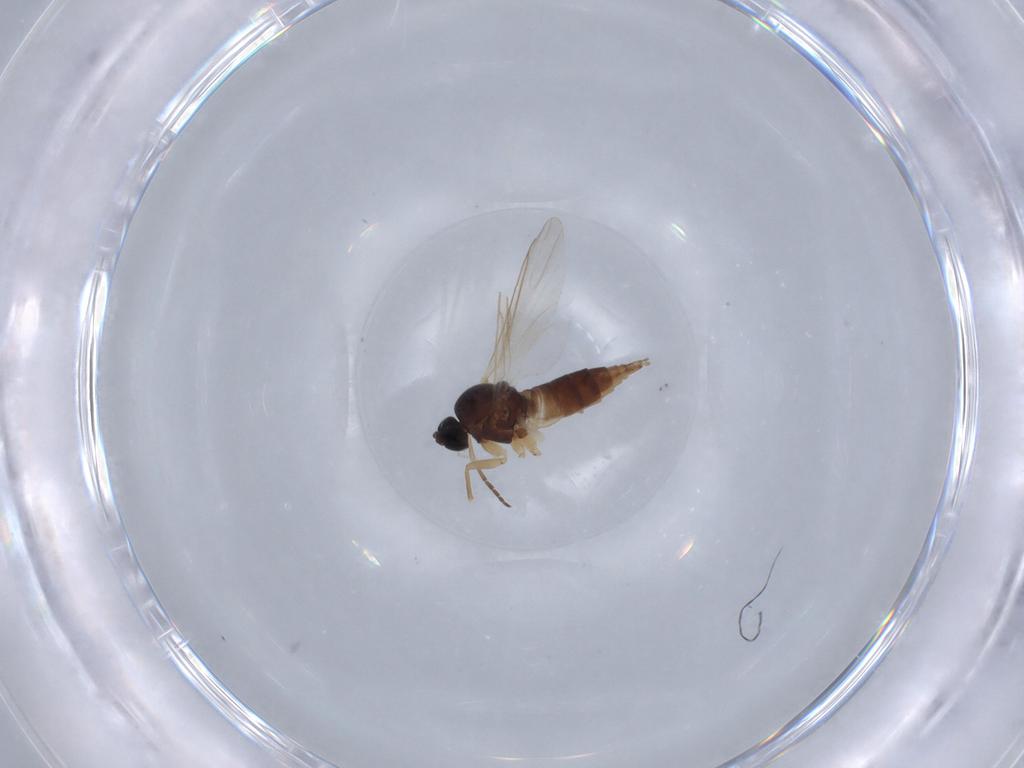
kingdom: Animalia
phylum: Arthropoda
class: Insecta
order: Diptera
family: Sciaridae
